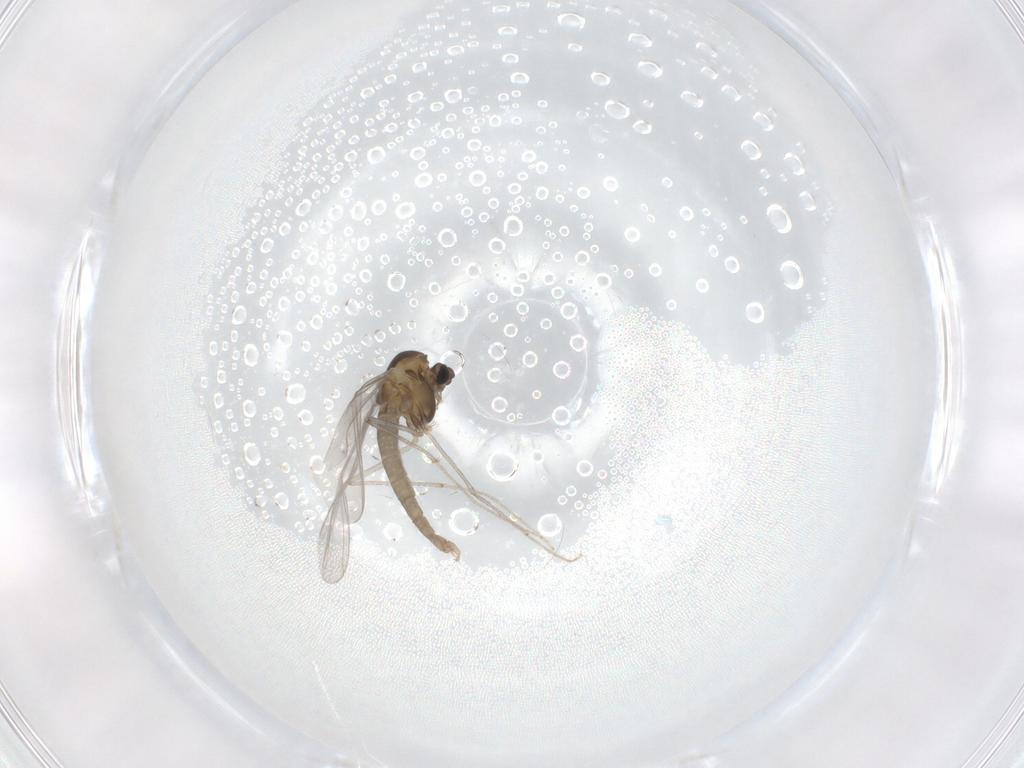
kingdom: Animalia
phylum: Arthropoda
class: Insecta
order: Diptera
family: Chironomidae
